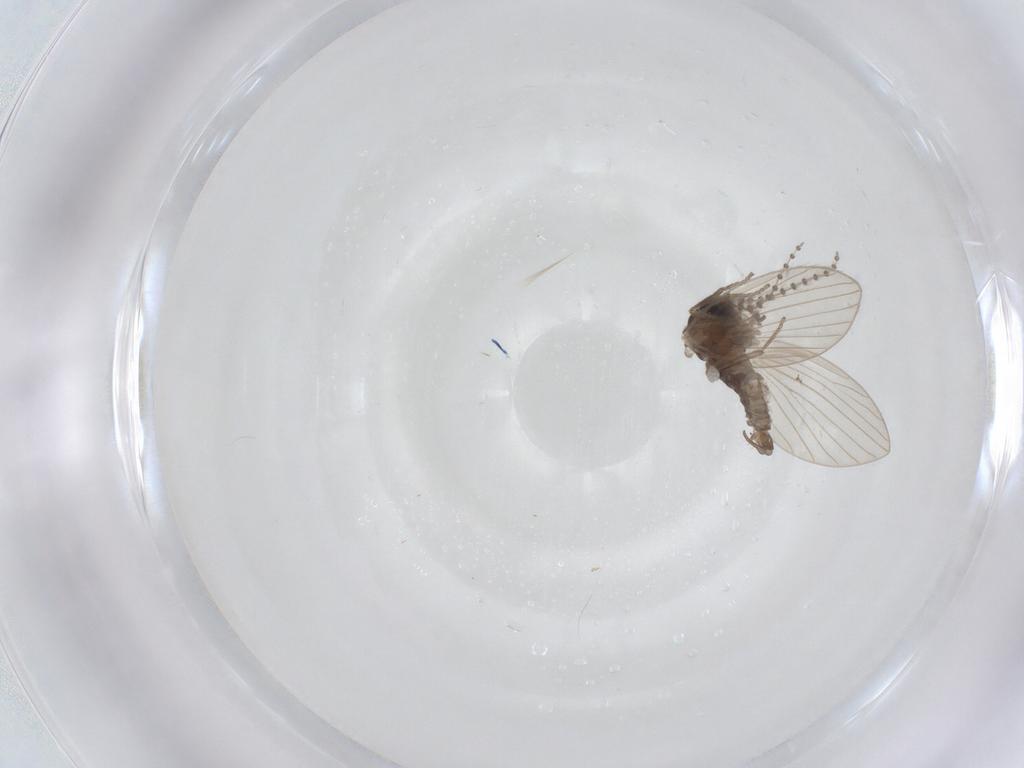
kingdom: Animalia
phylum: Arthropoda
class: Insecta
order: Diptera
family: Psychodidae
